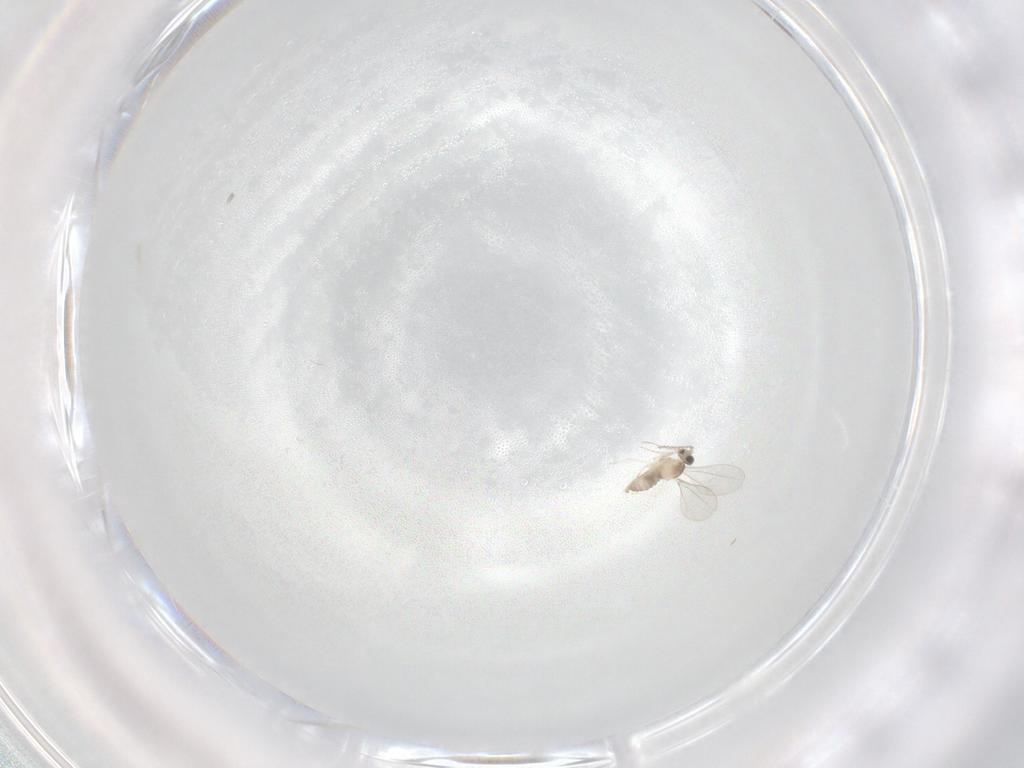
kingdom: Animalia
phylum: Arthropoda
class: Insecta
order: Diptera
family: Cecidomyiidae
